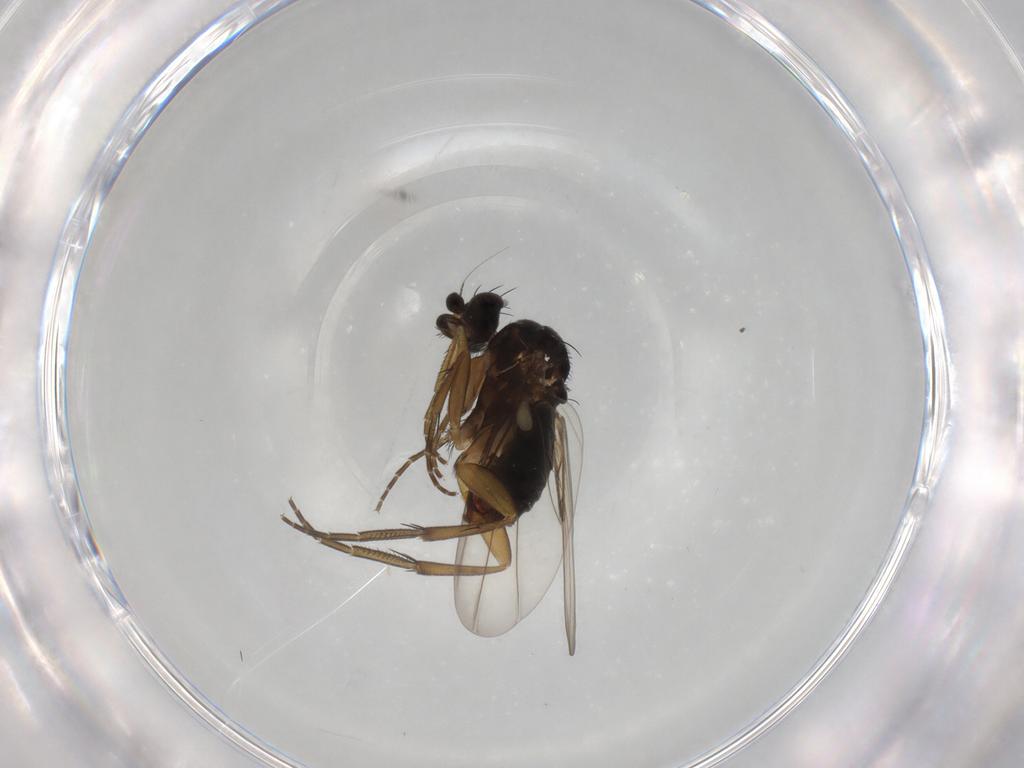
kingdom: Animalia
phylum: Arthropoda
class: Insecta
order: Diptera
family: Phoridae
